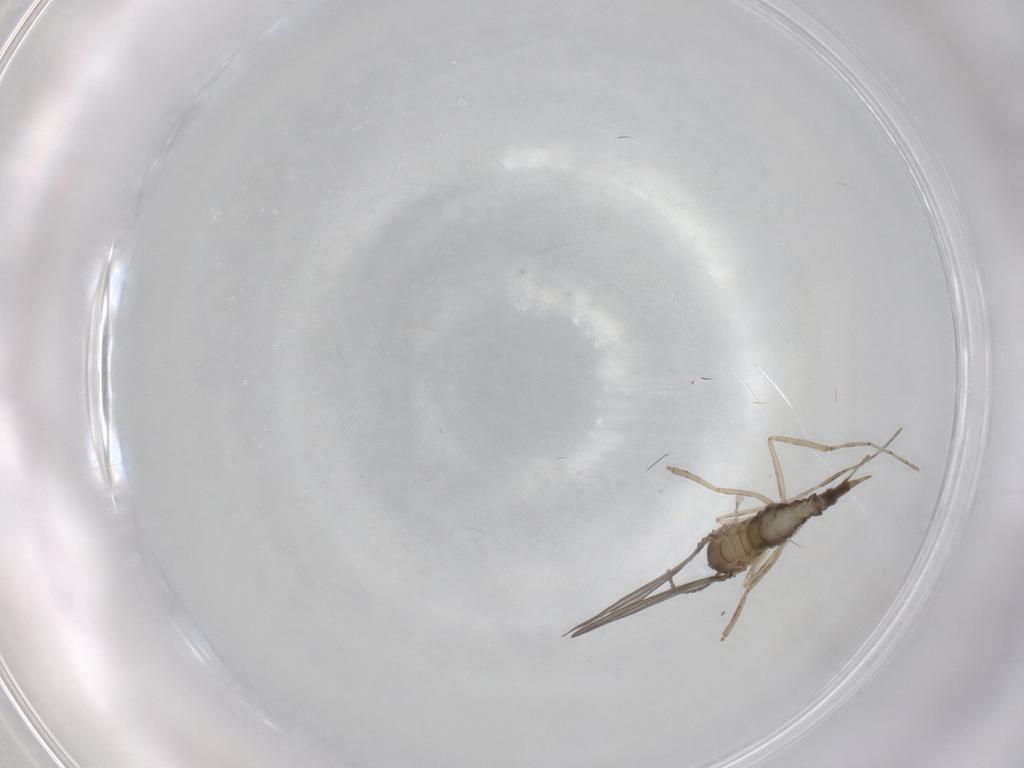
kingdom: Animalia
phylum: Arthropoda
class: Insecta
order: Diptera
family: Cecidomyiidae
